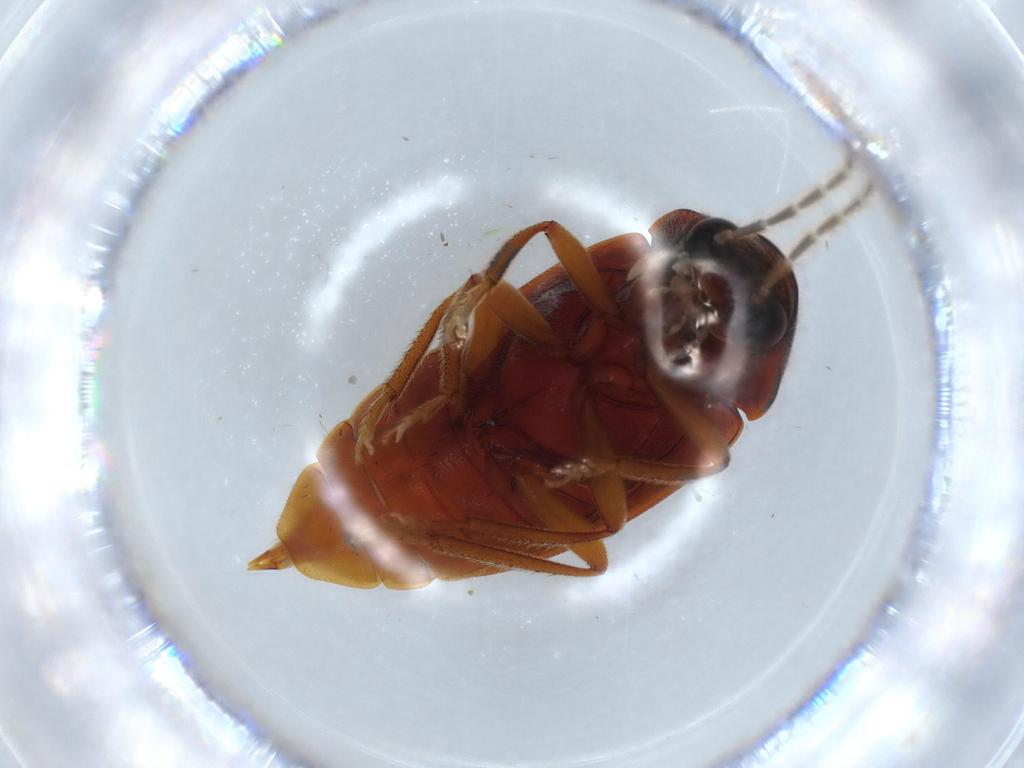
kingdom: Animalia
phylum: Arthropoda
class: Insecta
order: Coleoptera
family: Ptilodactylidae
